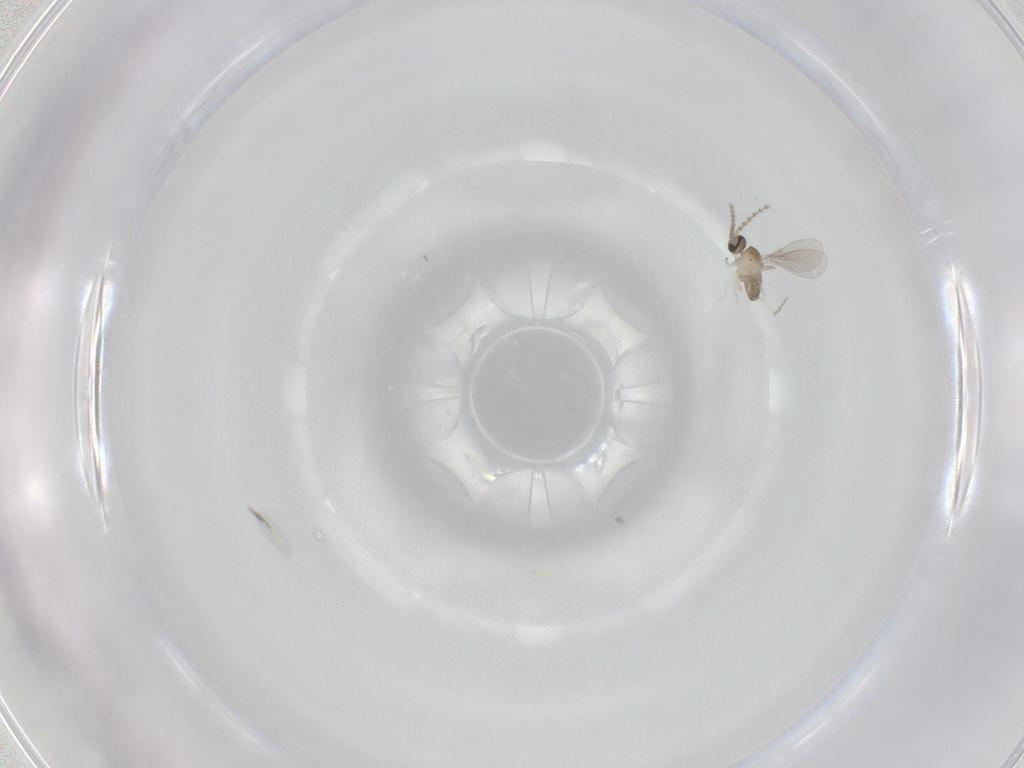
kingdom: Animalia
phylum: Arthropoda
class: Insecta
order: Diptera
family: Cecidomyiidae
